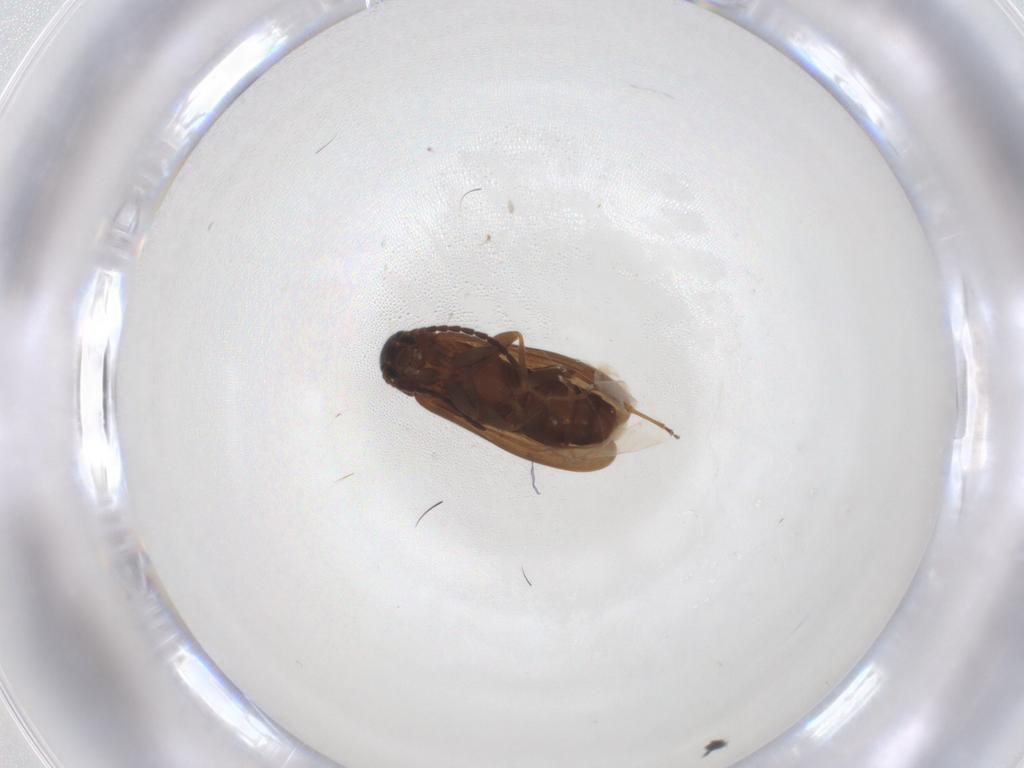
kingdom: Animalia
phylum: Arthropoda
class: Insecta
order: Coleoptera
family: Scraptiidae
